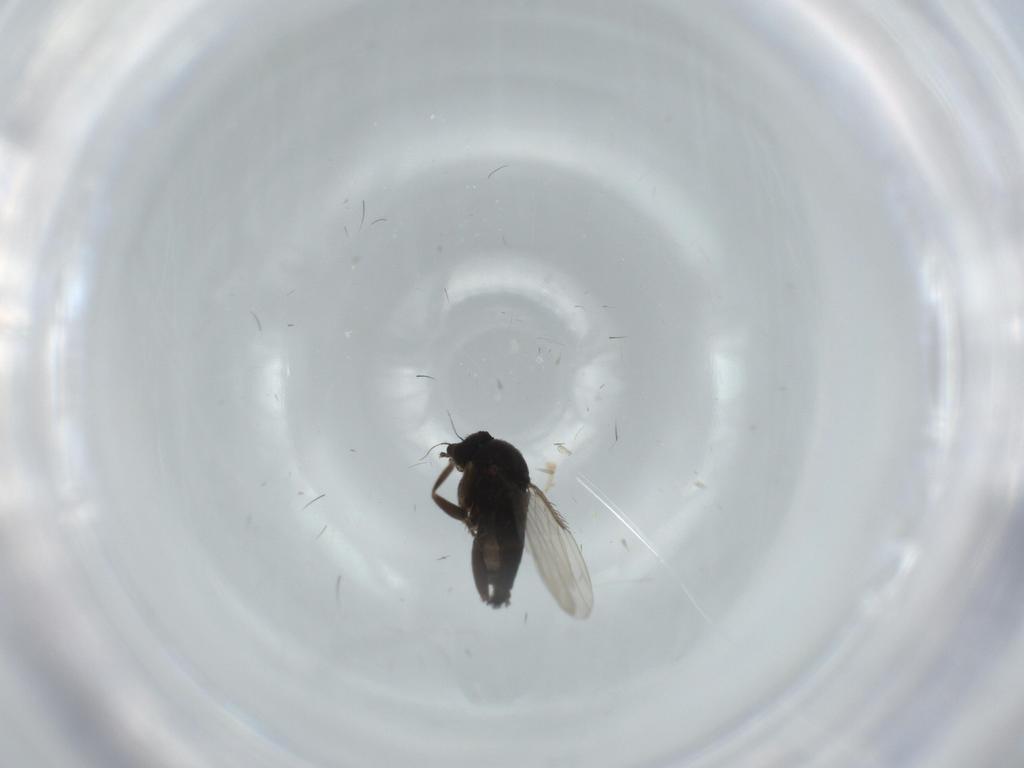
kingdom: Animalia
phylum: Arthropoda
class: Insecta
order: Diptera
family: Phoridae
